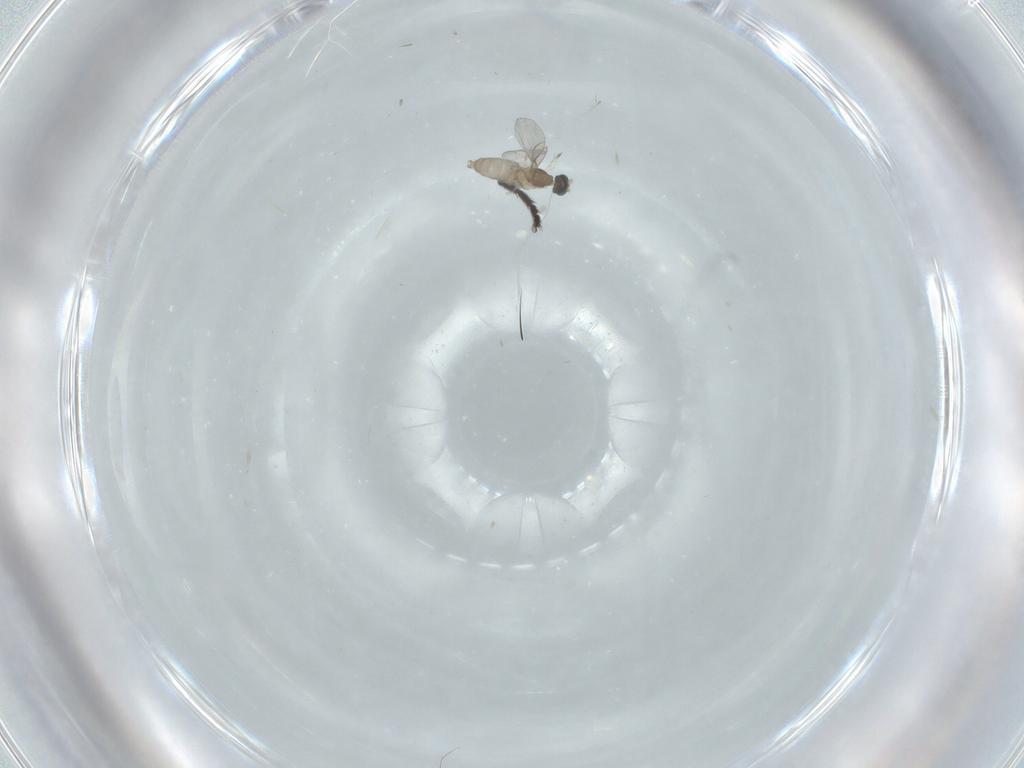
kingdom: Animalia
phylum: Arthropoda
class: Insecta
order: Diptera
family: Cecidomyiidae
